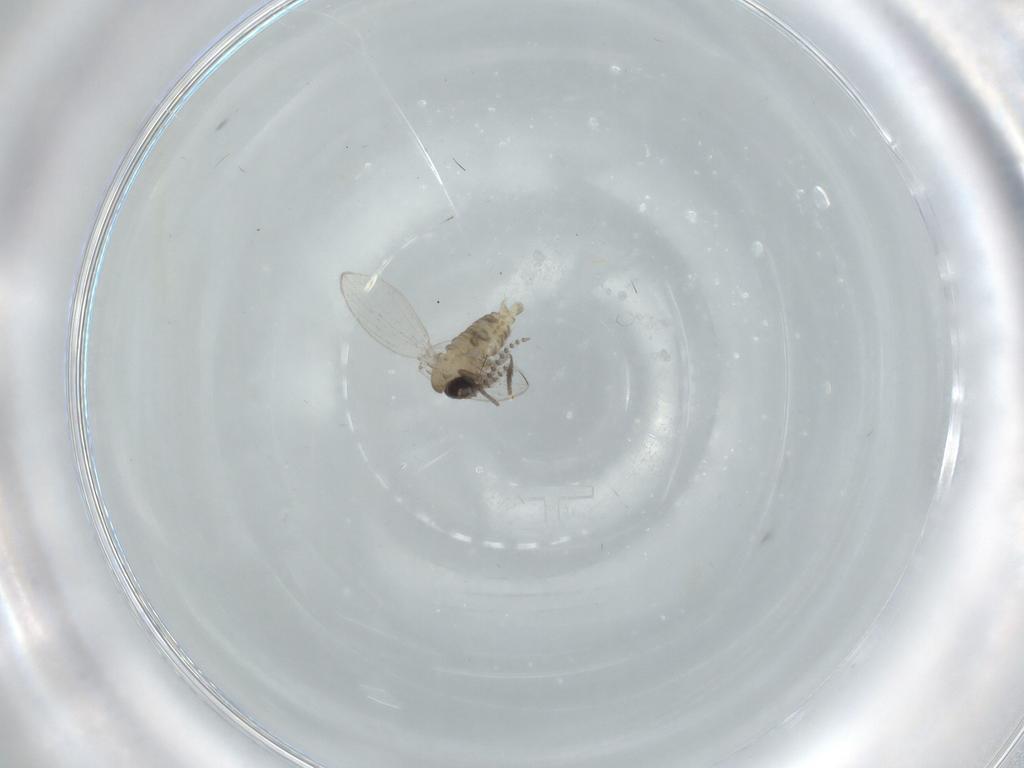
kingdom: Animalia
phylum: Arthropoda
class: Insecta
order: Diptera
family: Psychodidae
